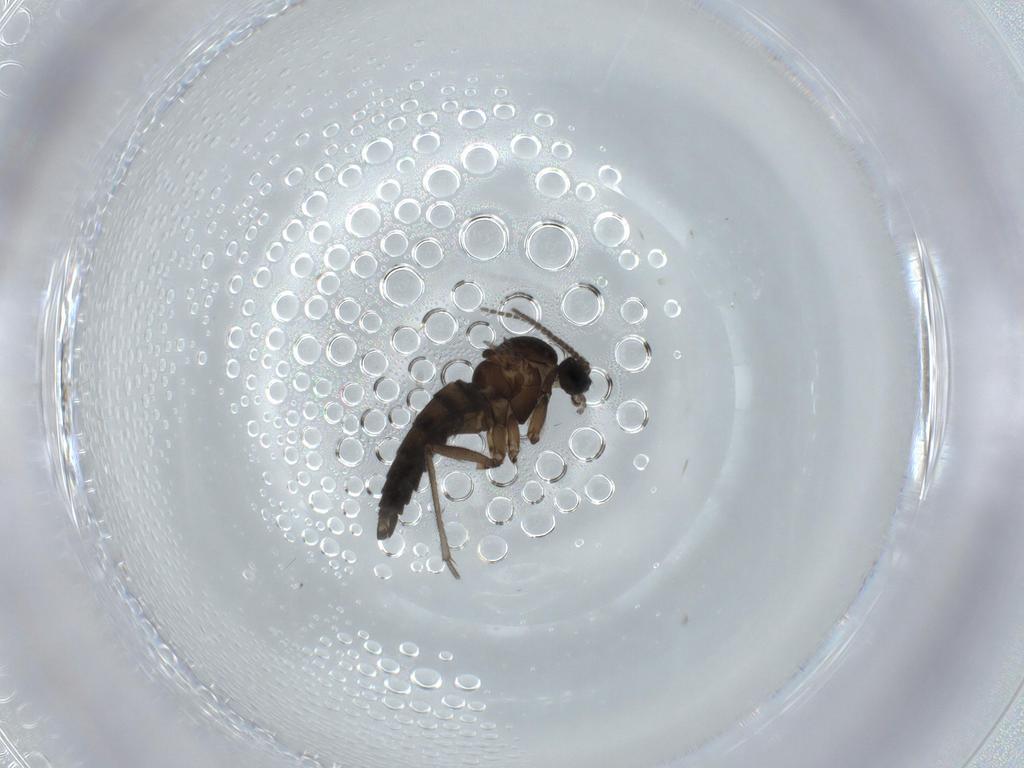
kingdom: Animalia
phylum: Arthropoda
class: Insecta
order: Diptera
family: Sciaridae
